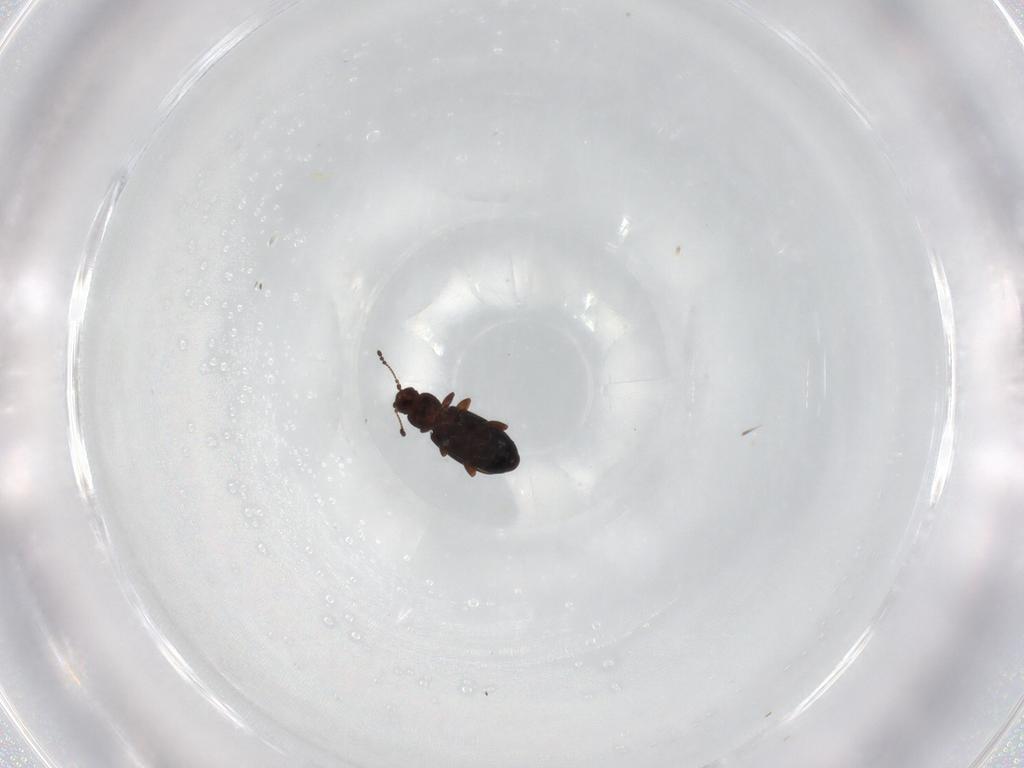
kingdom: Animalia
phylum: Arthropoda
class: Insecta
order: Coleoptera
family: Latridiidae
